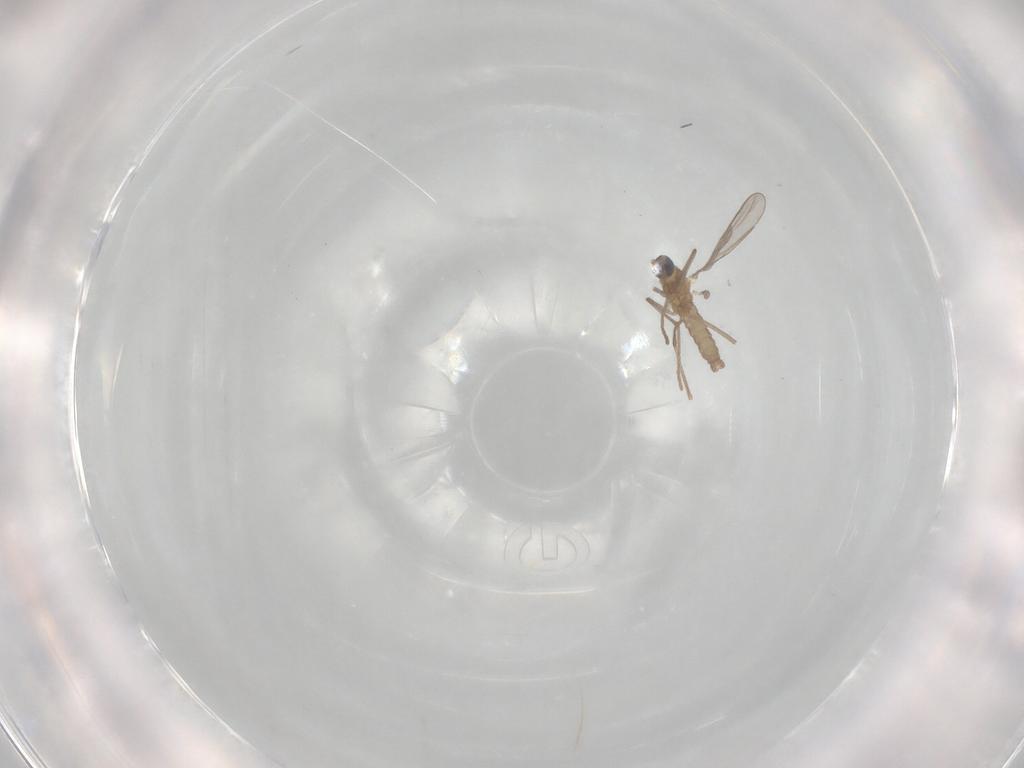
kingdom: Animalia
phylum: Arthropoda
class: Insecta
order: Diptera
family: Cecidomyiidae
